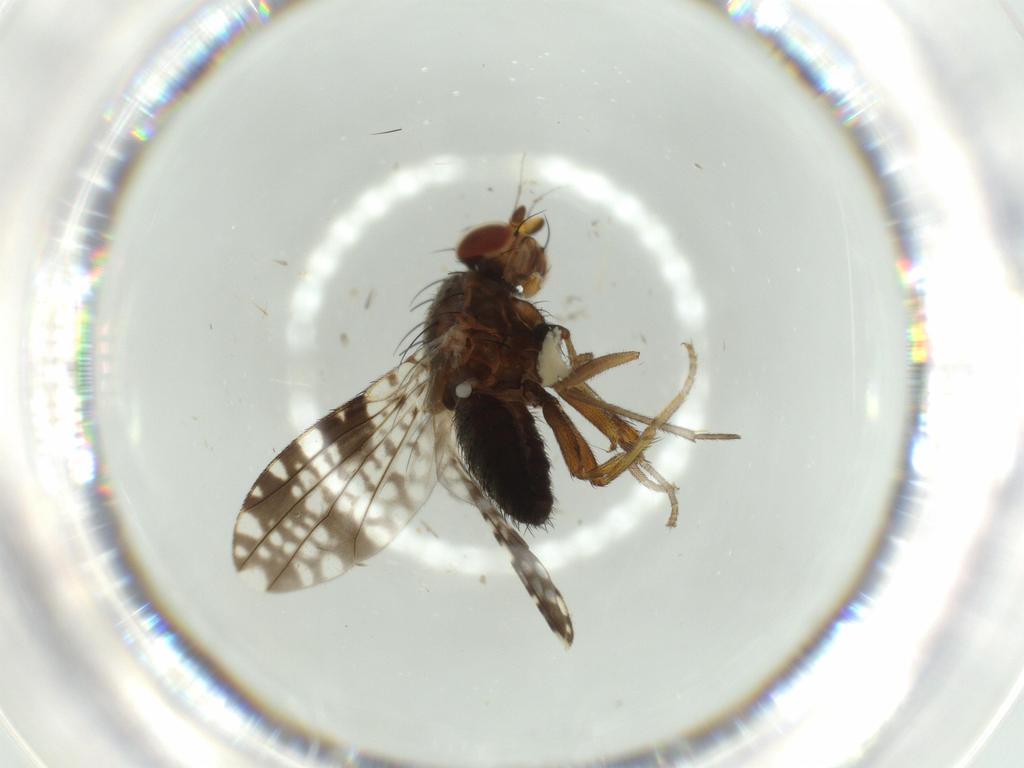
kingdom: Animalia
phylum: Arthropoda
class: Insecta
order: Diptera
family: Tephritidae
